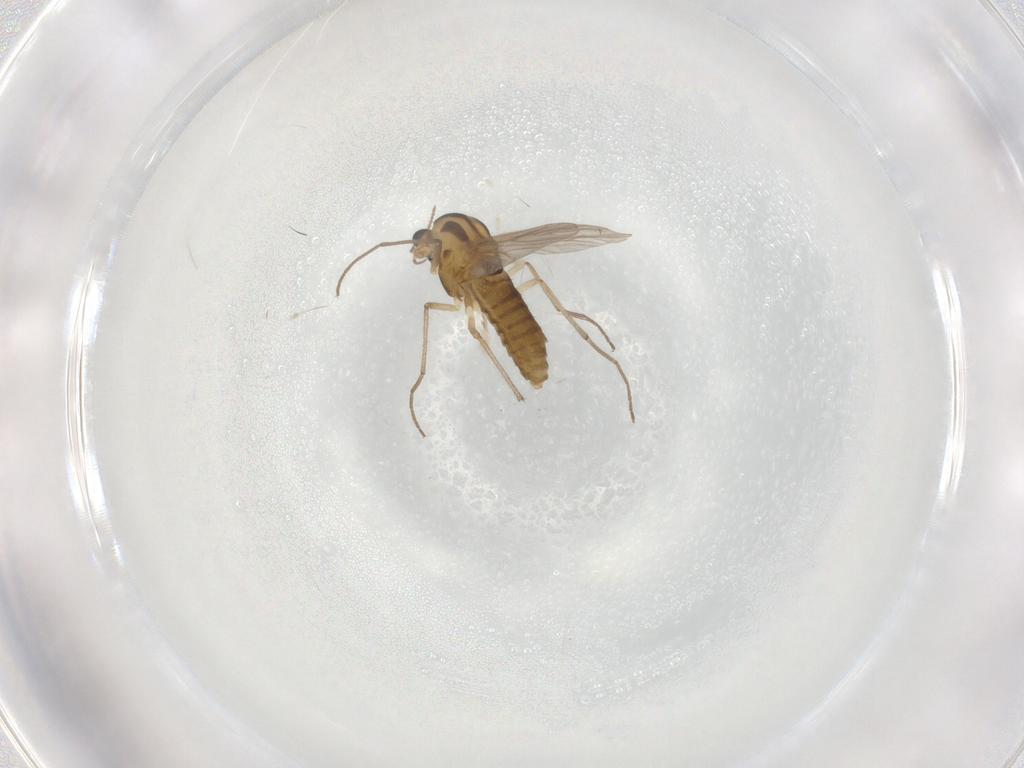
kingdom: Animalia
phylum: Arthropoda
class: Insecta
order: Diptera
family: Chironomidae
